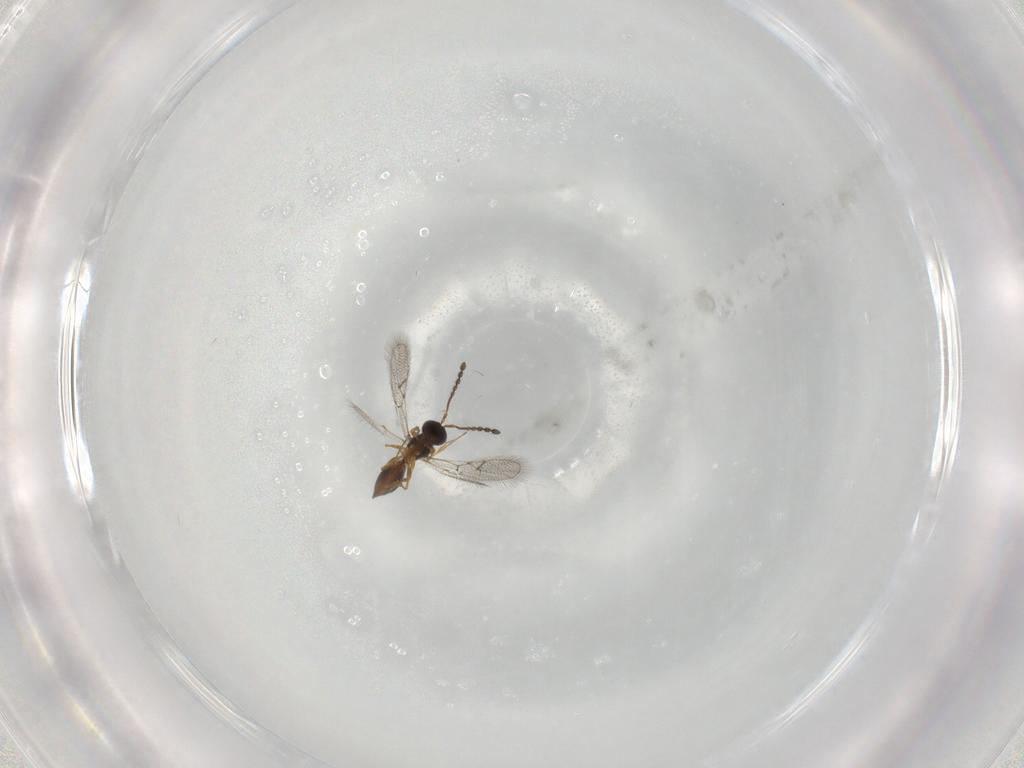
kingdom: Animalia
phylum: Arthropoda
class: Insecta
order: Hymenoptera
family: Figitidae
